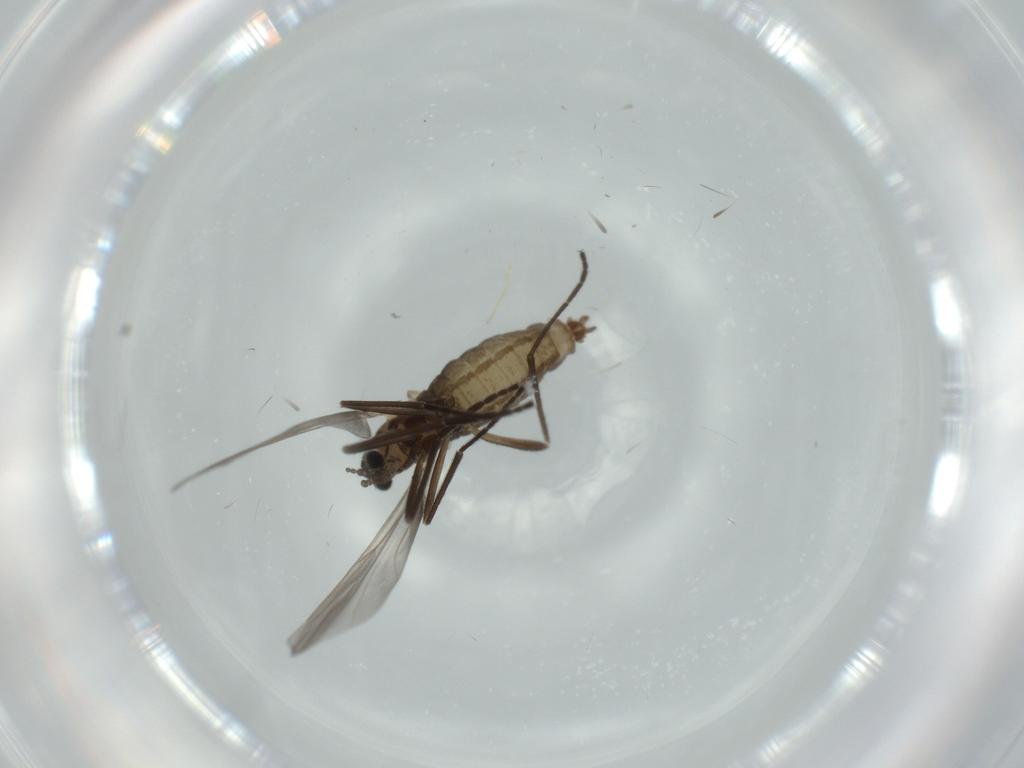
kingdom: Animalia
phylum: Arthropoda
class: Insecta
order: Diptera
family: Cecidomyiidae
